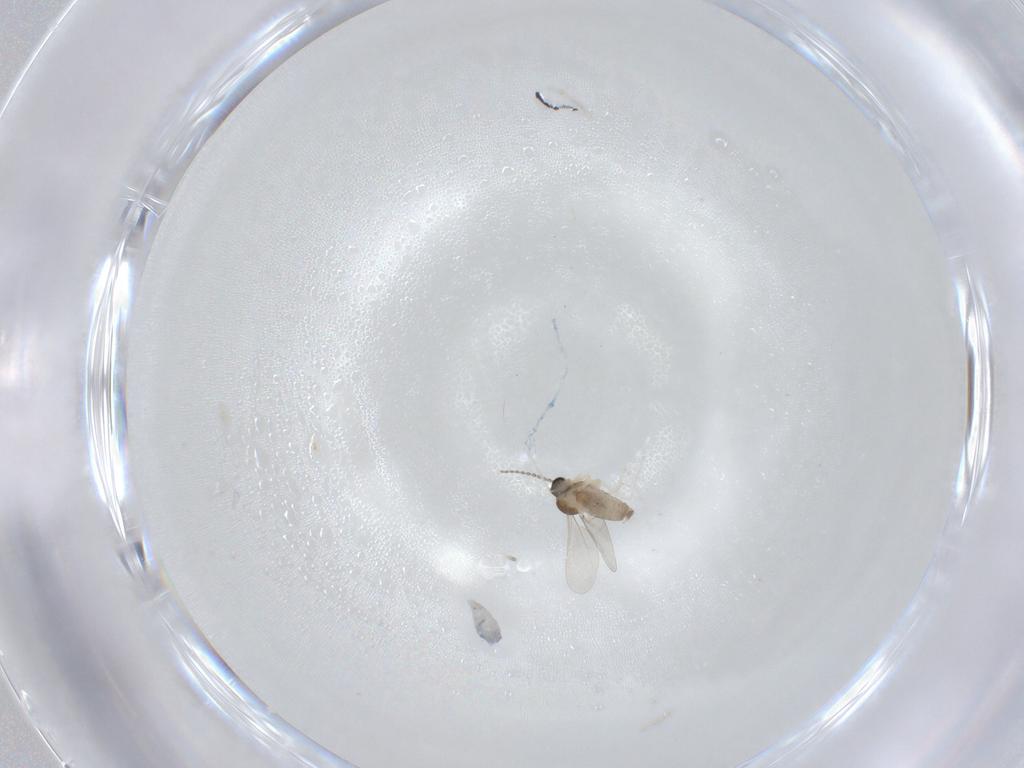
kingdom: Animalia
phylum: Arthropoda
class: Insecta
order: Diptera
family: Cecidomyiidae
